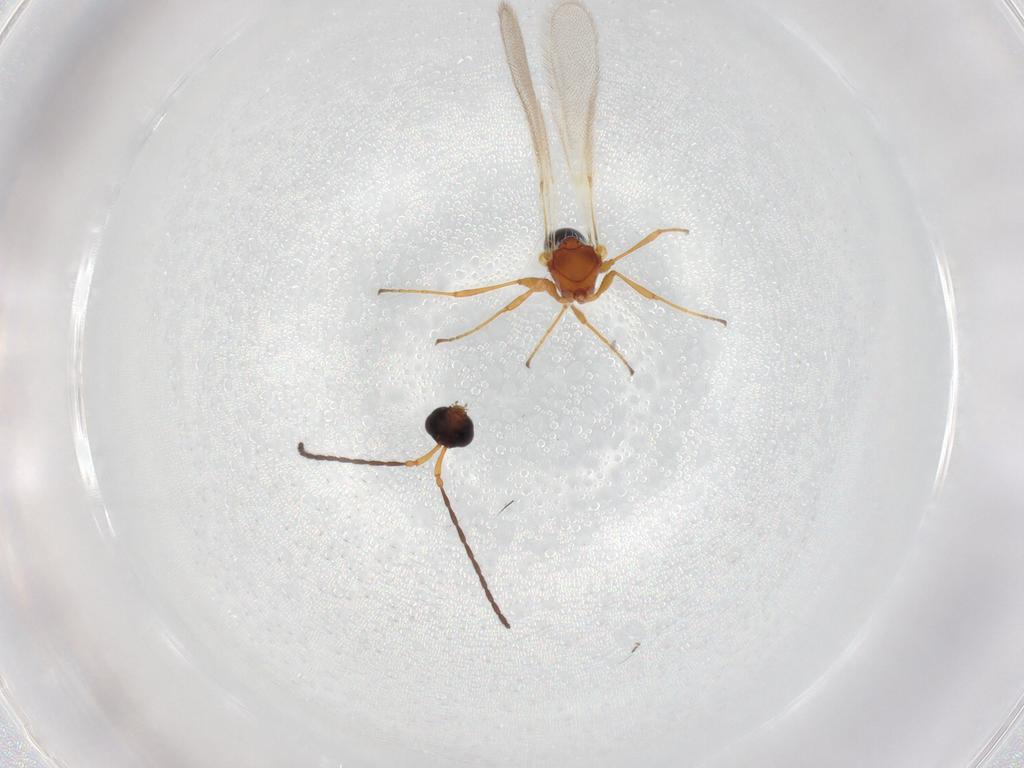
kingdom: Animalia
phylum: Arthropoda
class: Insecta
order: Hymenoptera
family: Diapriidae
